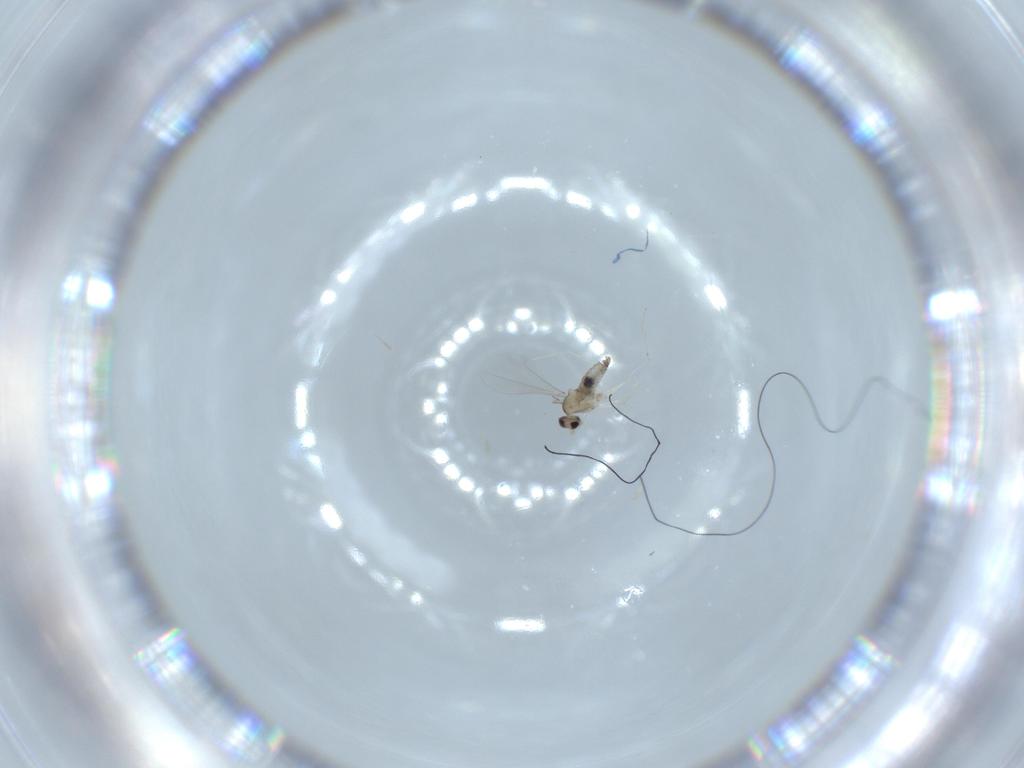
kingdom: Animalia
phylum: Arthropoda
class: Insecta
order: Diptera
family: Cecidomyiidae
